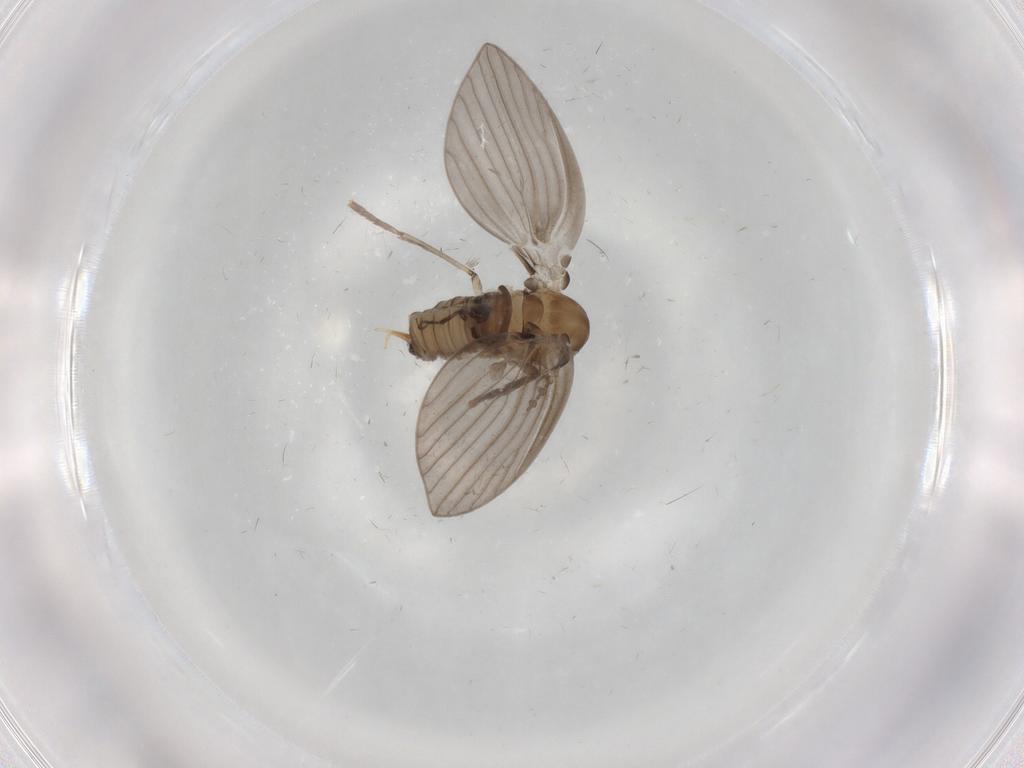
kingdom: Animalia
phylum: Arthropoda
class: Insecta
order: Diptera
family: Psychodidae
